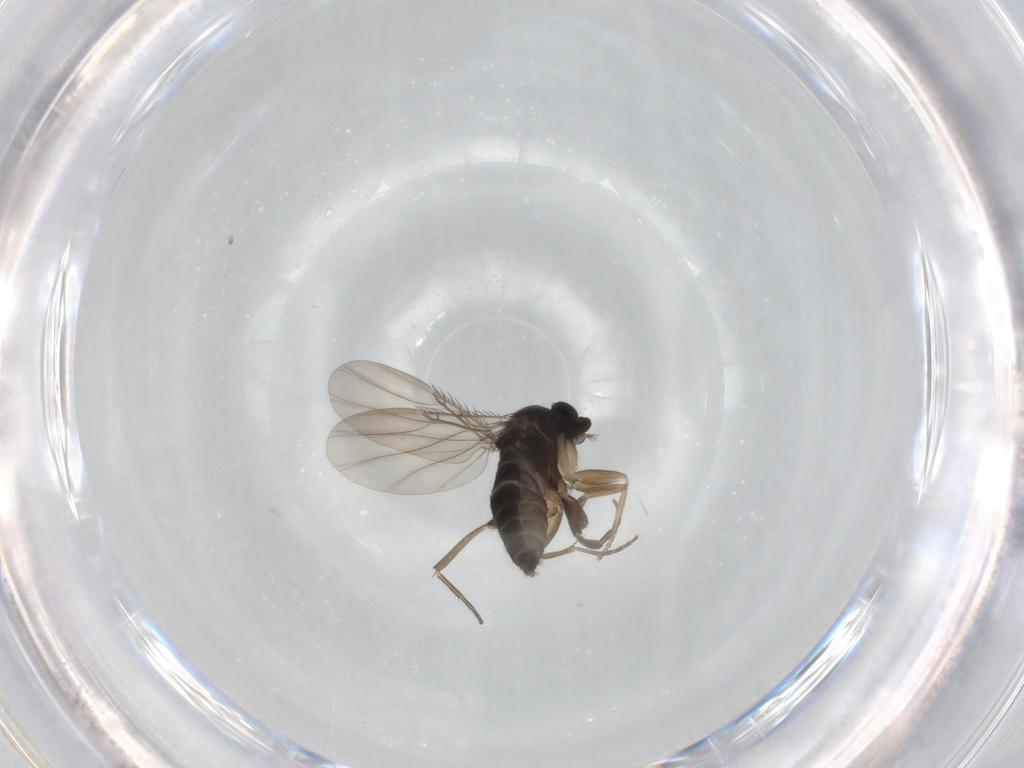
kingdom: Animalia
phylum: Arthropoda
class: Insecta
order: Diptera
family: Phoridae
